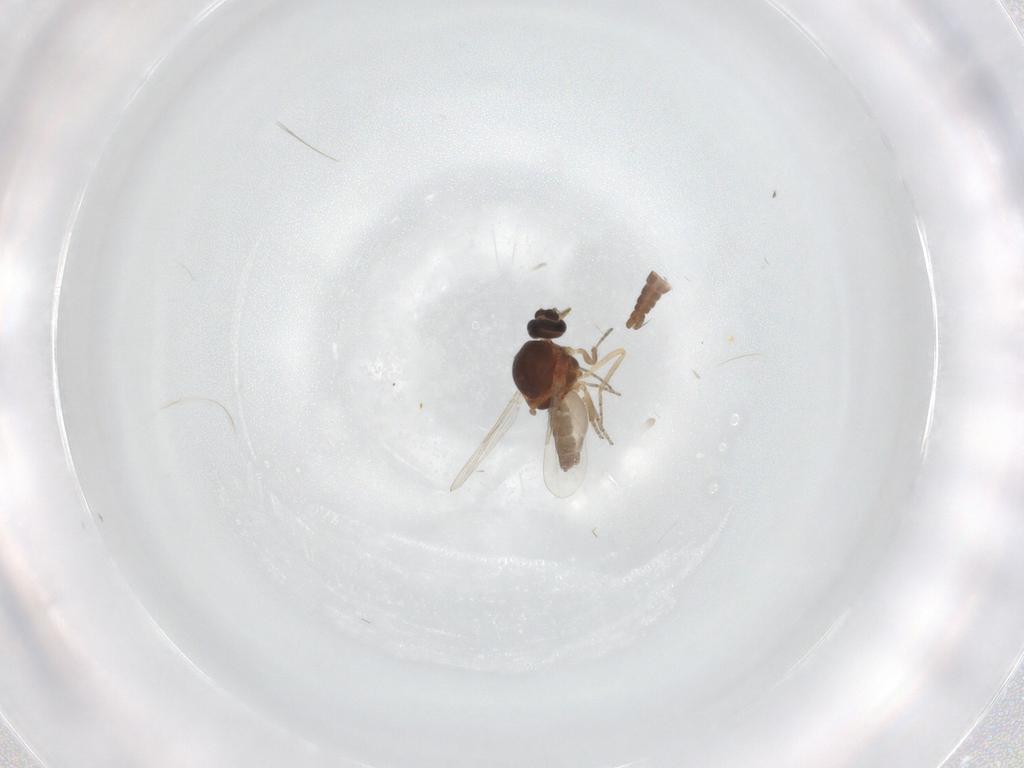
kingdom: Animalia
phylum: Arthropoda
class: Insecta
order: Diptera
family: Ceratopogonidae
